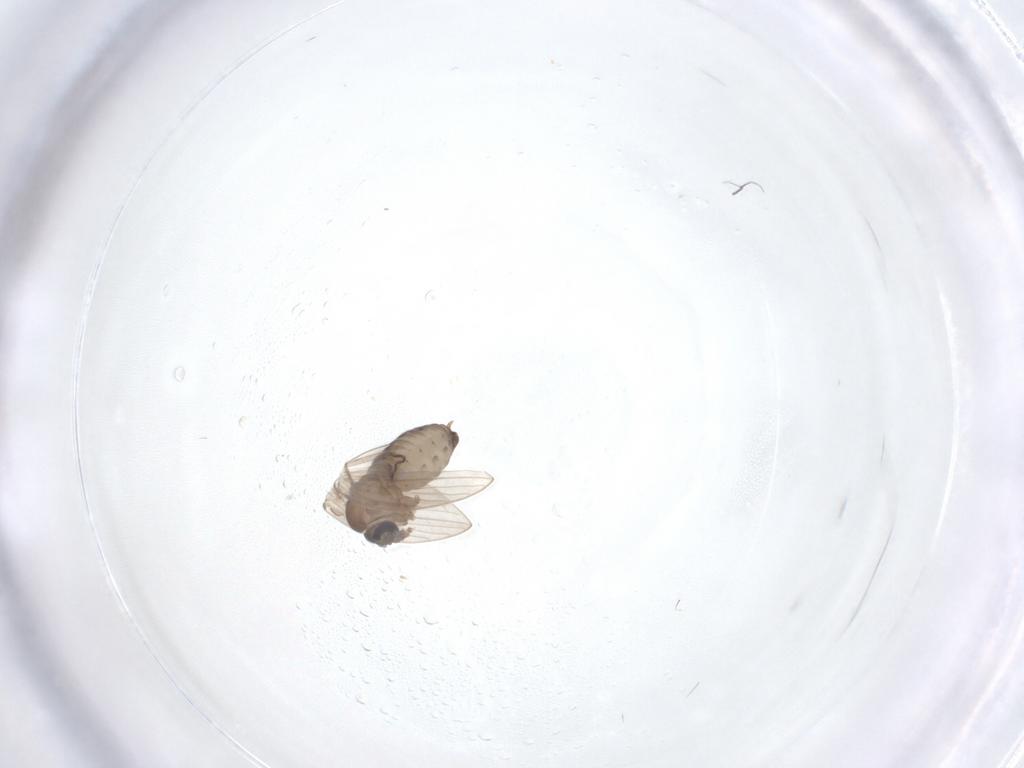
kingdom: Animalia
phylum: Arthropoda
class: Insecta
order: Diptera
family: Psychodidae
